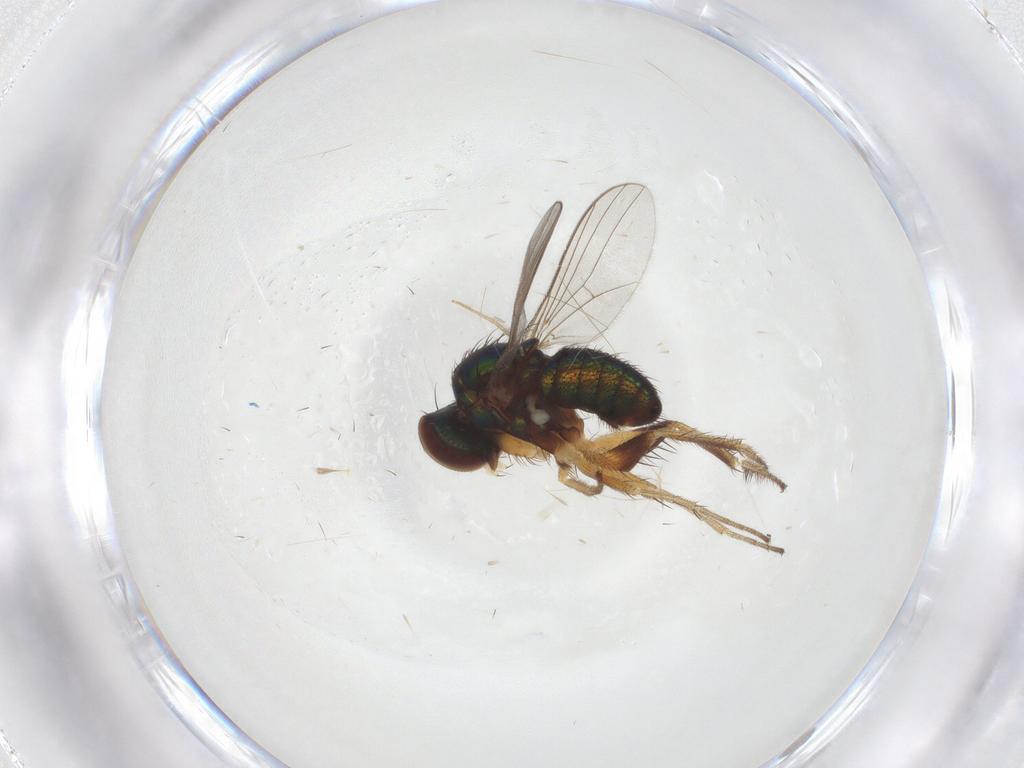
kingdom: Animalia
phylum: Arthropoda
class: Insecta
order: Diptera
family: Cecidomyiidae
